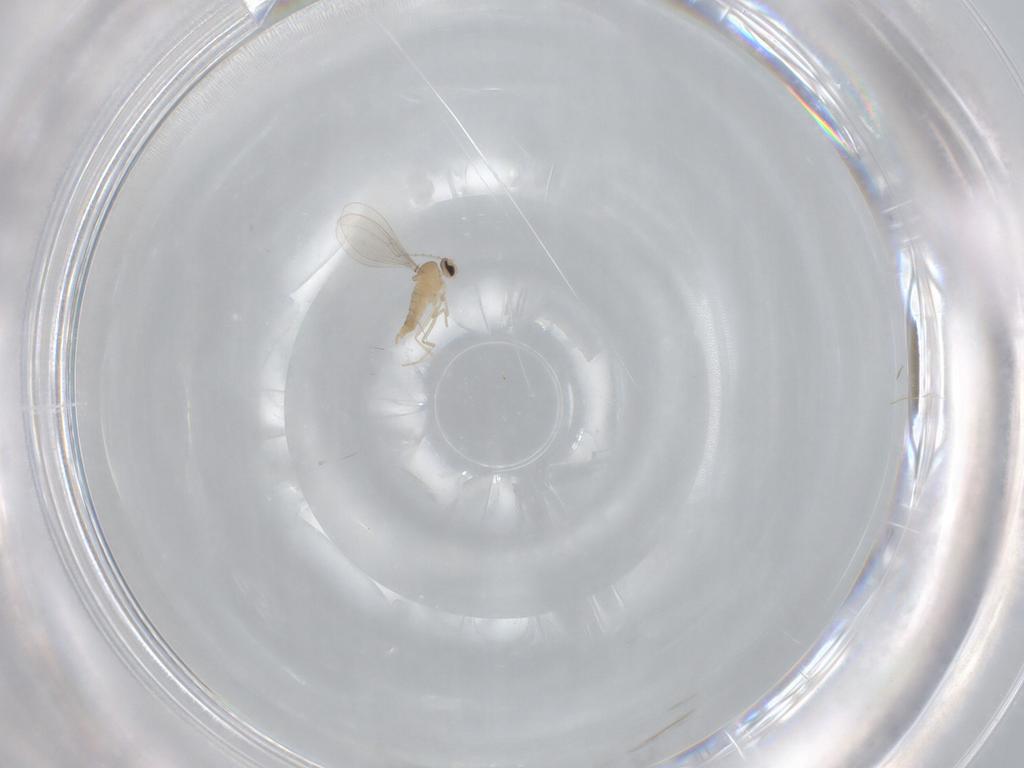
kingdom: Animalia
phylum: Arthropoda
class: Insecta
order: Diptera
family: Cecidomyiidae
